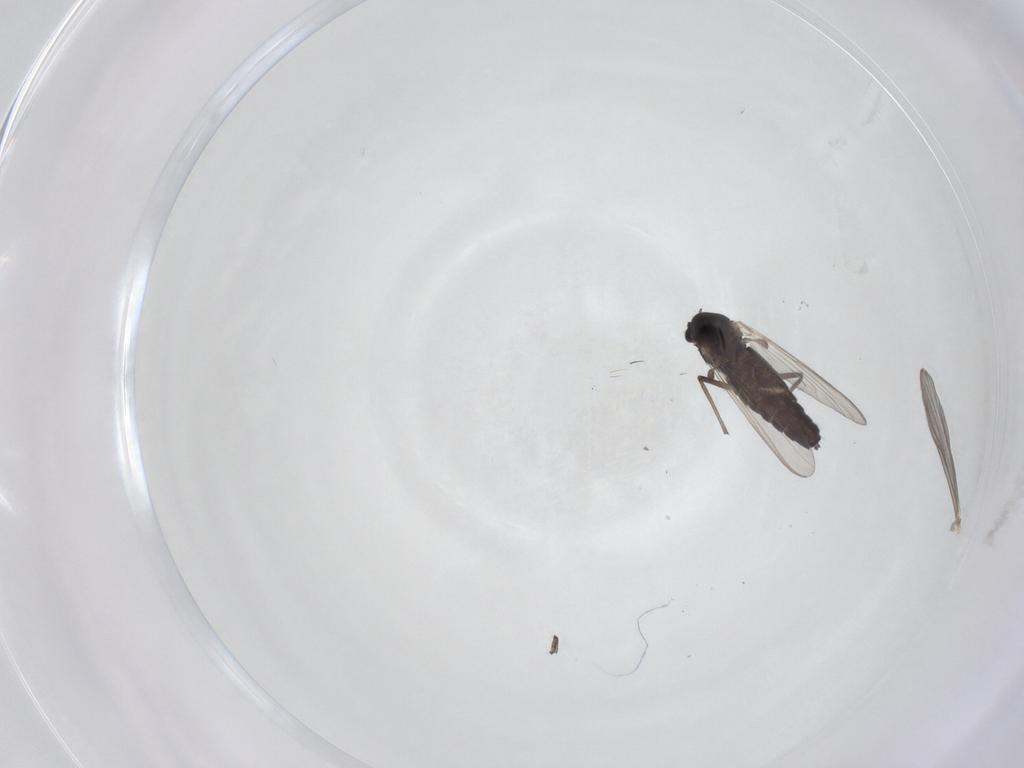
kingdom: Animalia
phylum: Arthropoda
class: Insecta
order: Diptera
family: Chironomidae
